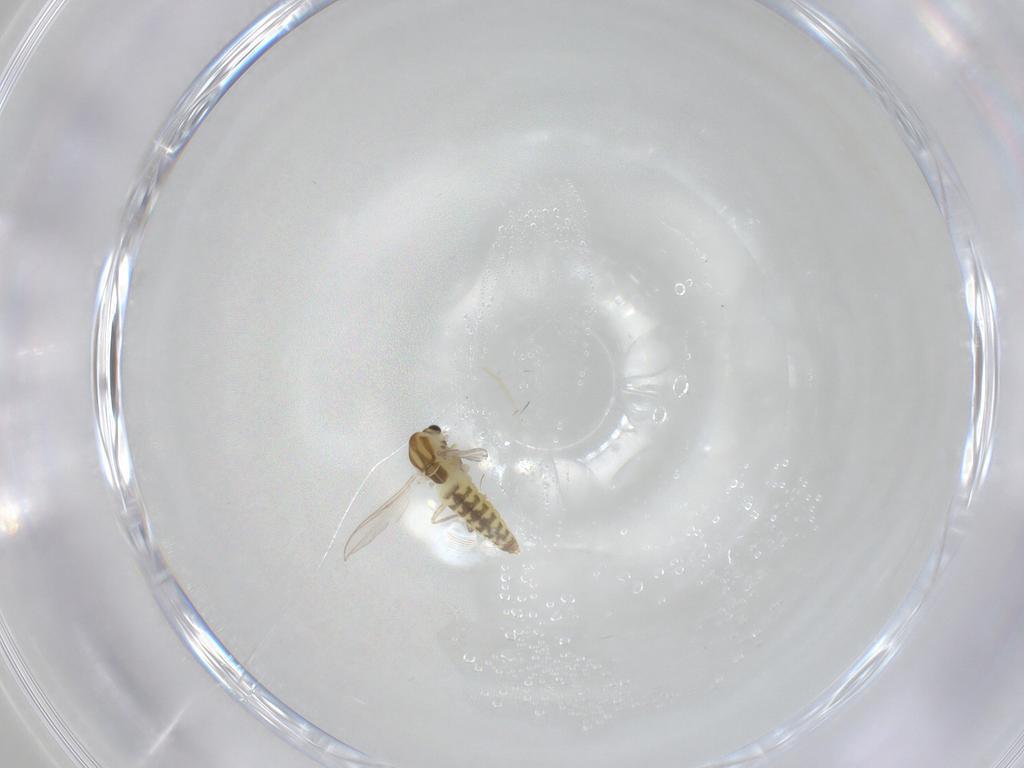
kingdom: Animalia
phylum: Arthropoda
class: Insecta
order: Diptera
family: Chironomidae
